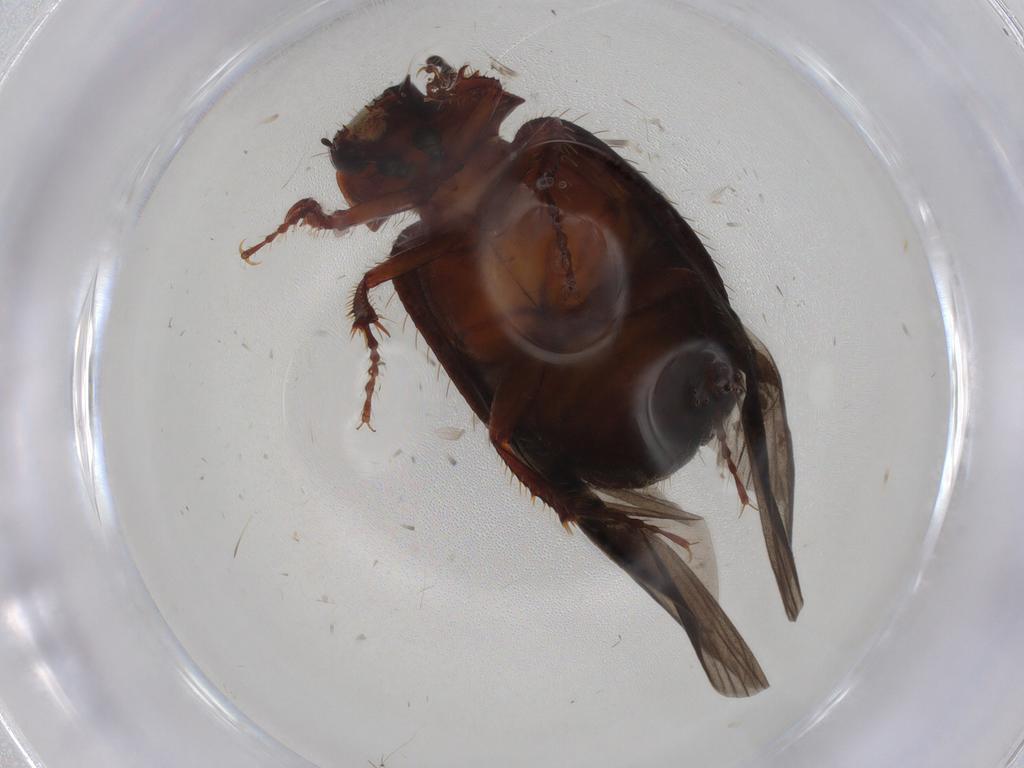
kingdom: Animalia
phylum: Arthropoda
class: Insecta
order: Coleoptera
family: Hybosoridae
